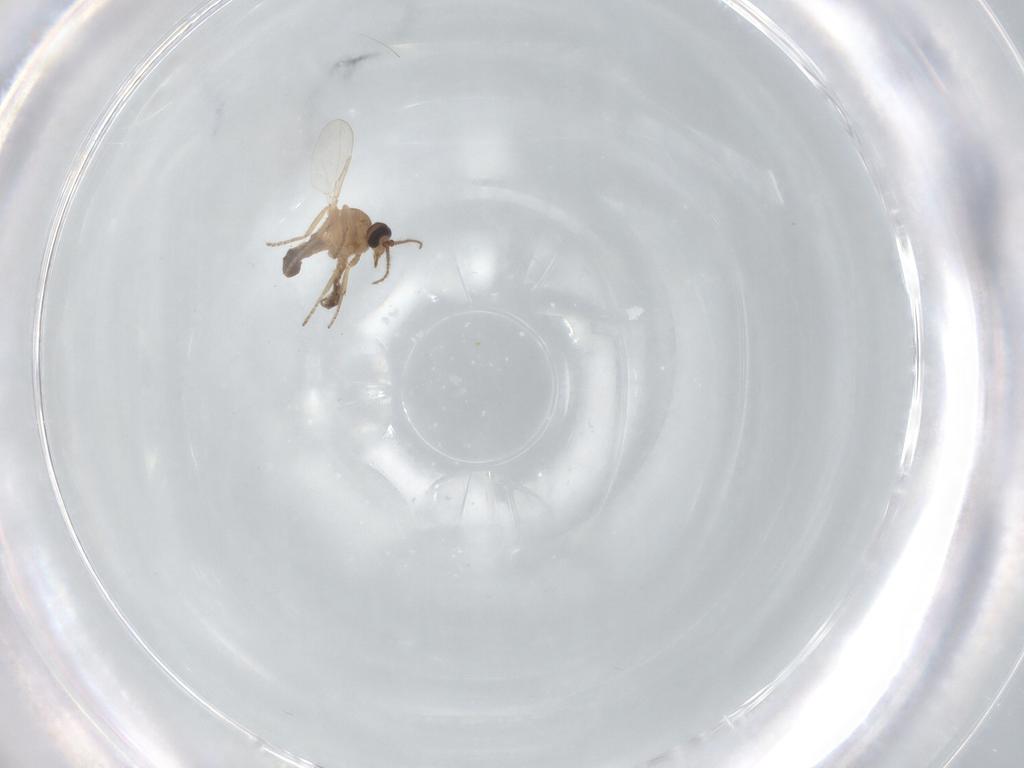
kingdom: Animalia
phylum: Arthropoda
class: Insecta
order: Diptera
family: Ceratopogonidae
